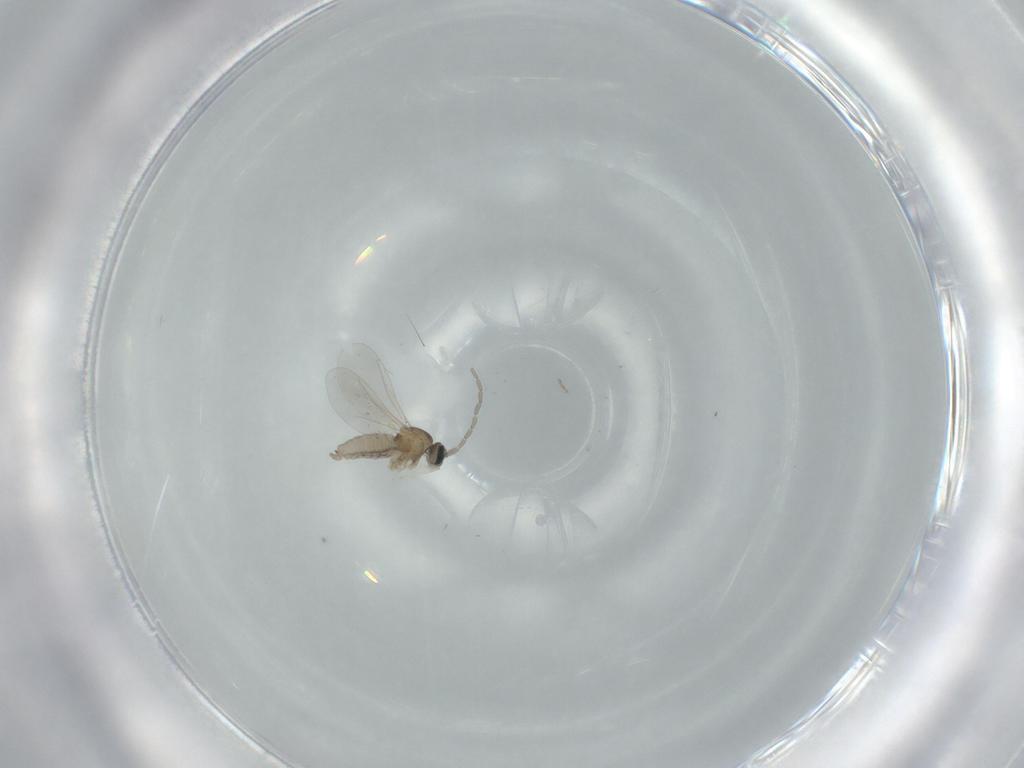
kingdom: Animalia
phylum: Arthropoda
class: Insecta
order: Diptera
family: Cecidomyiidae
